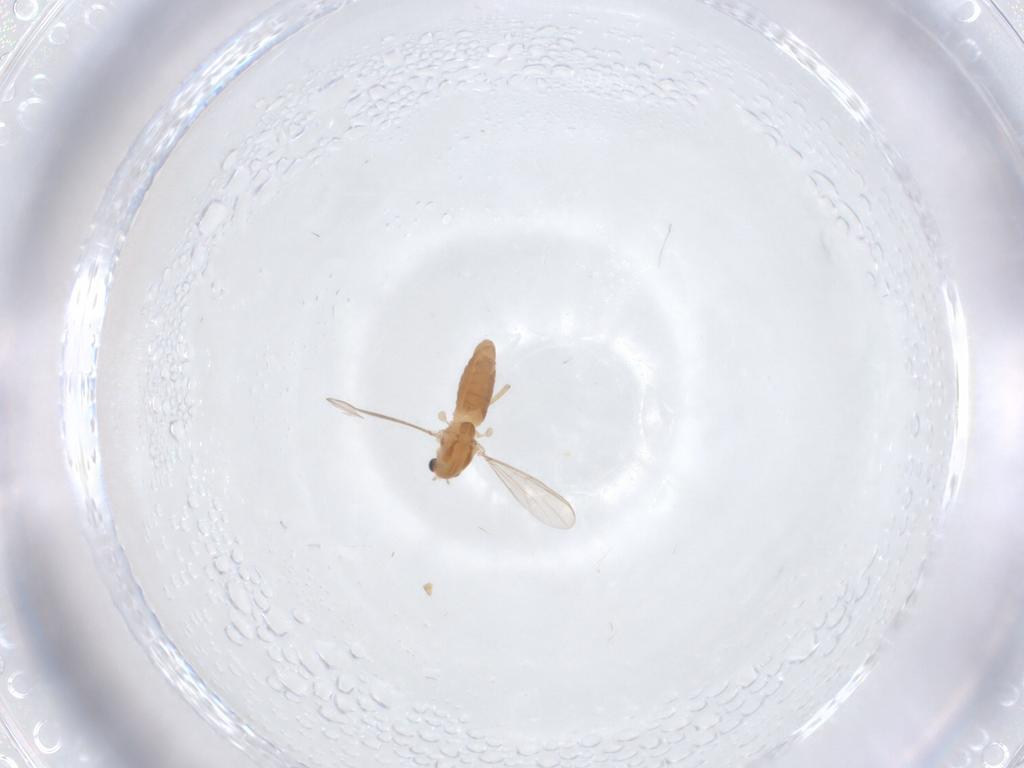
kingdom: Animalia
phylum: Arthropoda
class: Insecta
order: Diptera
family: Chironomidae
